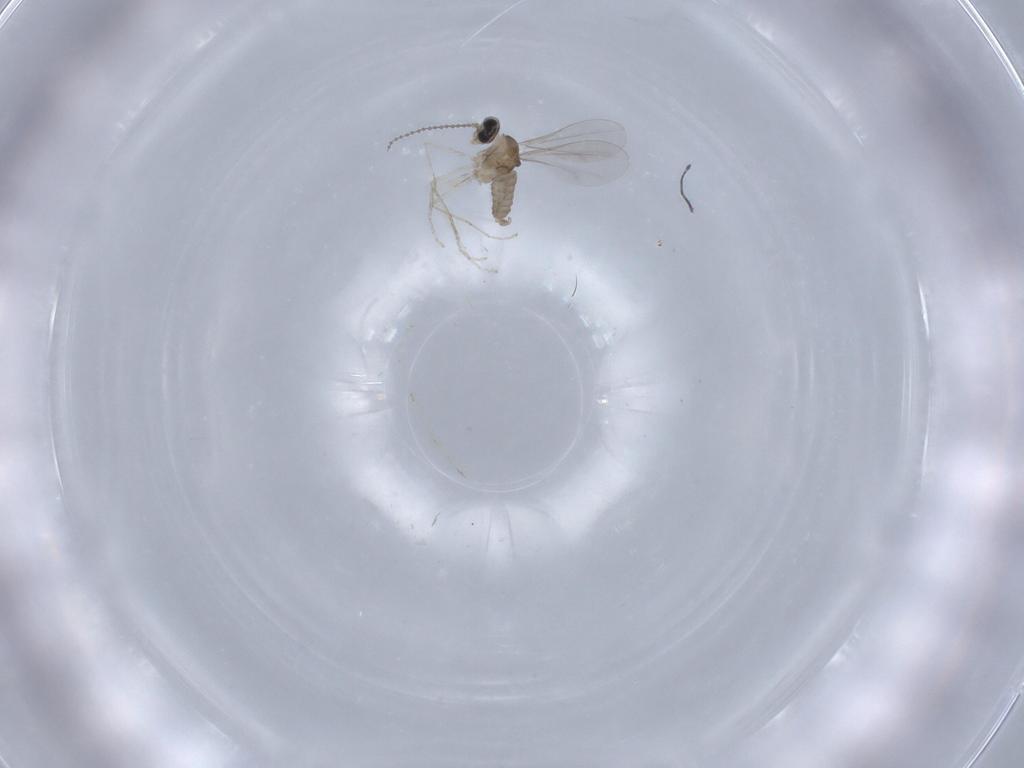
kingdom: Animalia
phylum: Arthropoda
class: Insecta
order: Diptera
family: Cecidomyiidae
